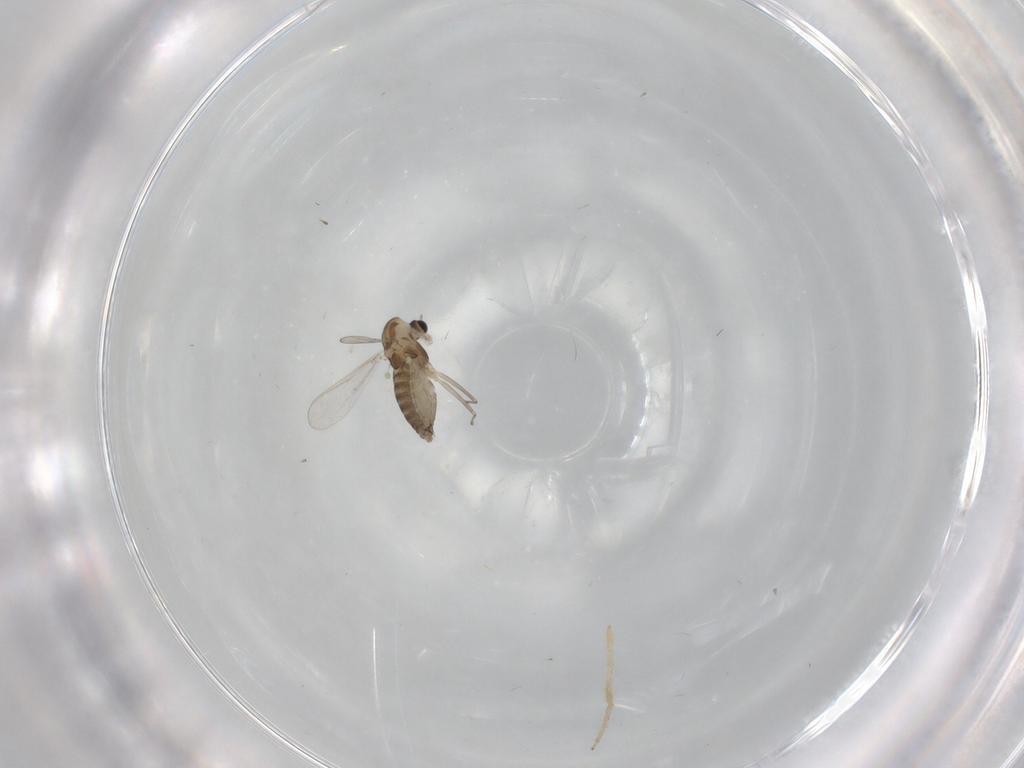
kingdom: Animalia
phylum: Arthropoda
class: Insecta
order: Diptera
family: Chironomidae
